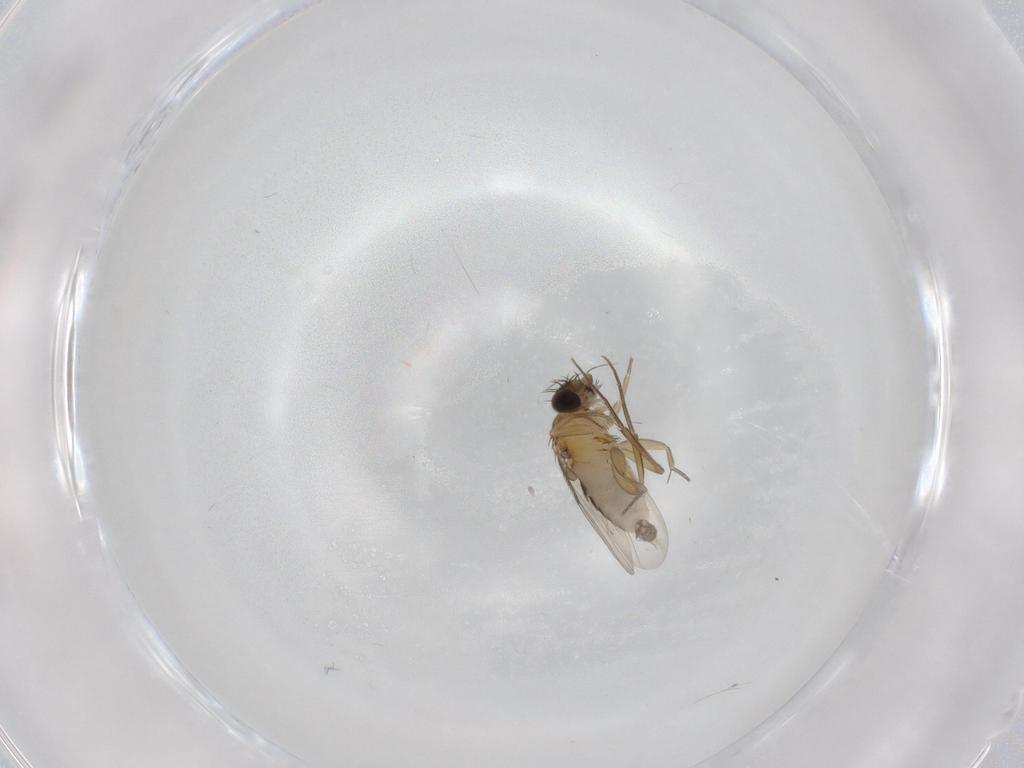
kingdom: Animalia
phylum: Arthropoda
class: Insecta
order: Diptera
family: Phoridae
